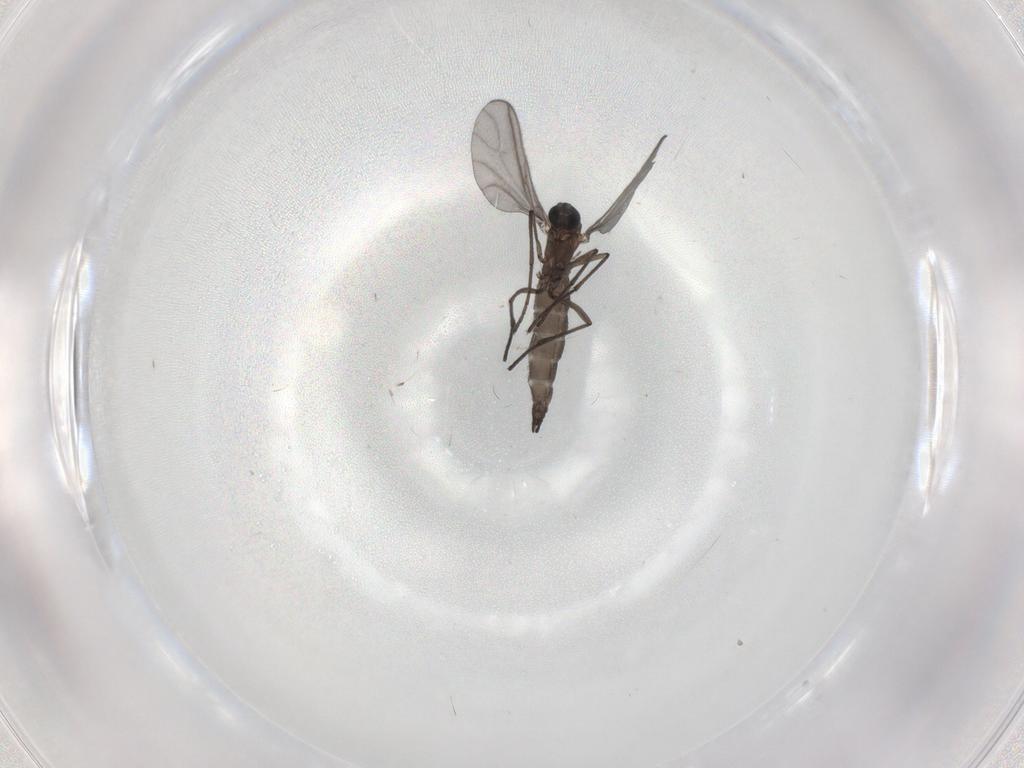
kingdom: Animalia
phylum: Arthropoda
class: Insecta
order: Diptera
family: Sciaridae
